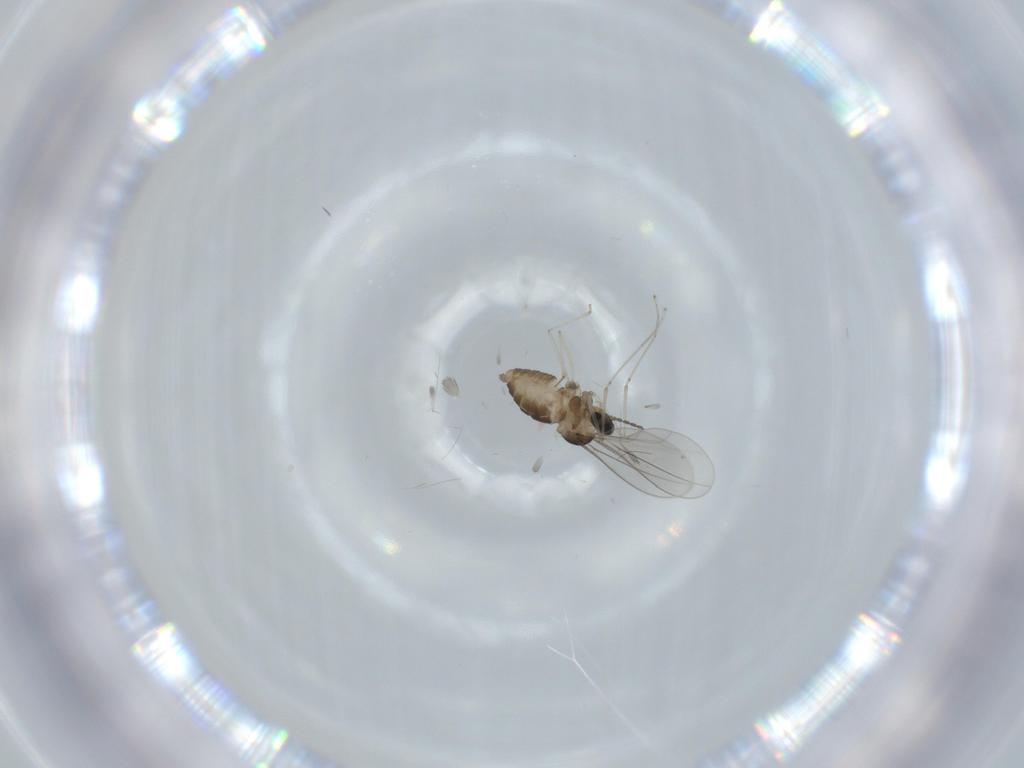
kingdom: Animalia
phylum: Arthropoda
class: Insecta
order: Diptera
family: Cecidomyiidae
